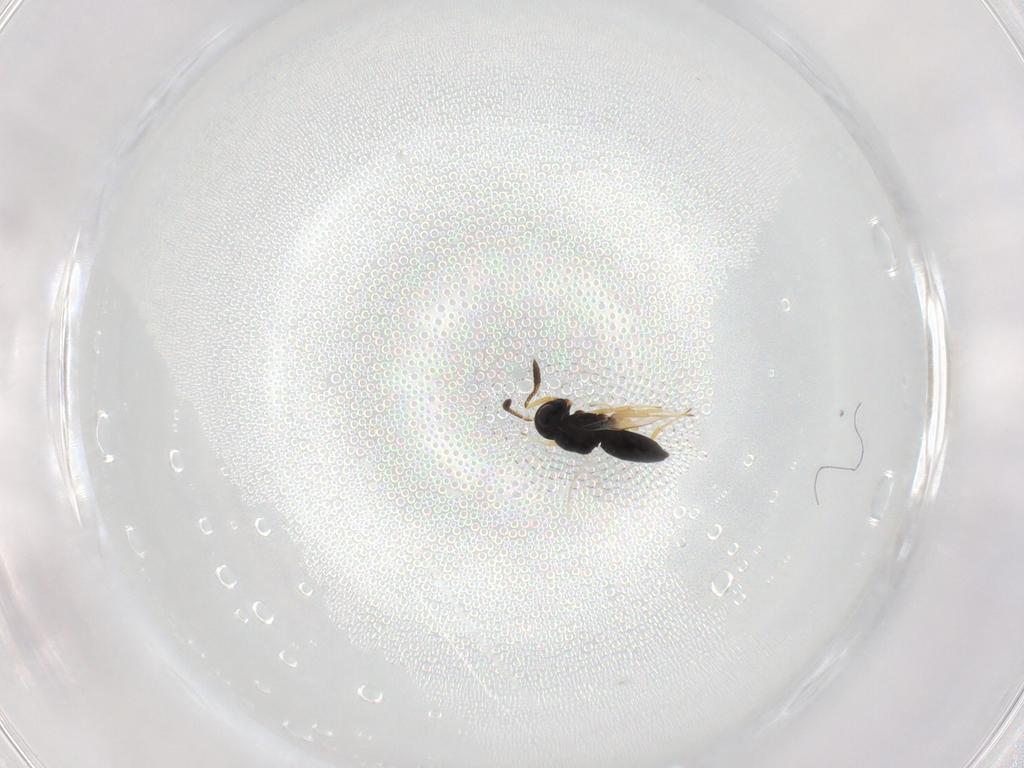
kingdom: Animalia
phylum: Arthropoda
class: Insecta
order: Hymenoptera
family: Scelionidae
